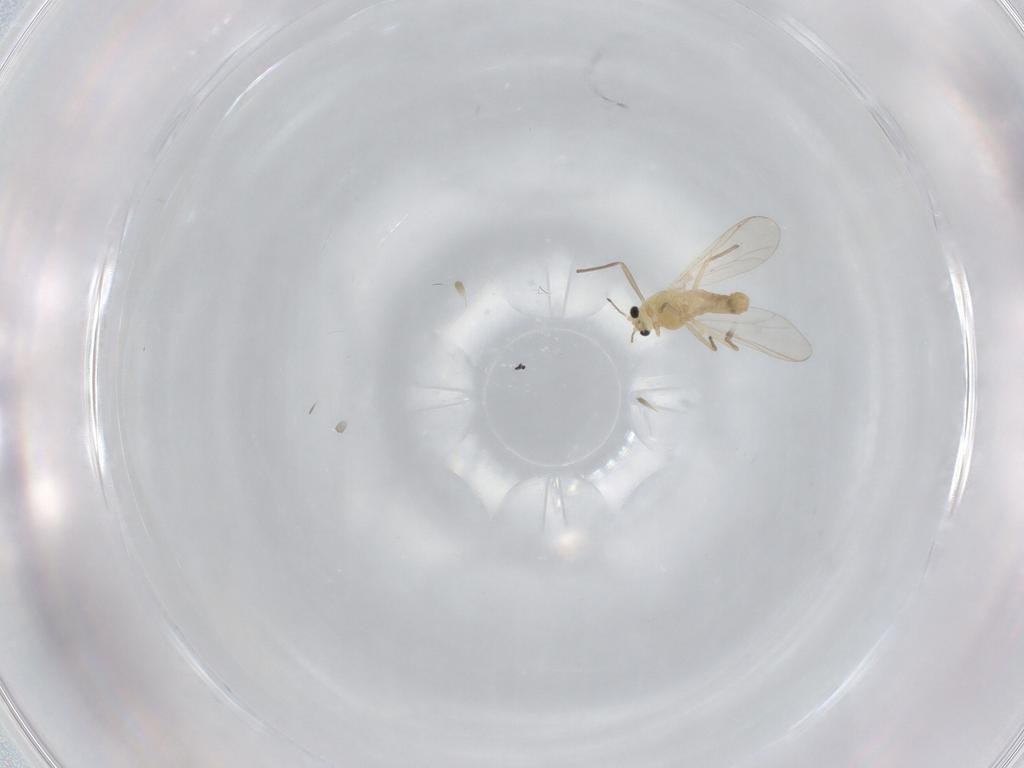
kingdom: Animalia
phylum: Arthropoda
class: Insecta
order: Diptera
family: Chironomidae
